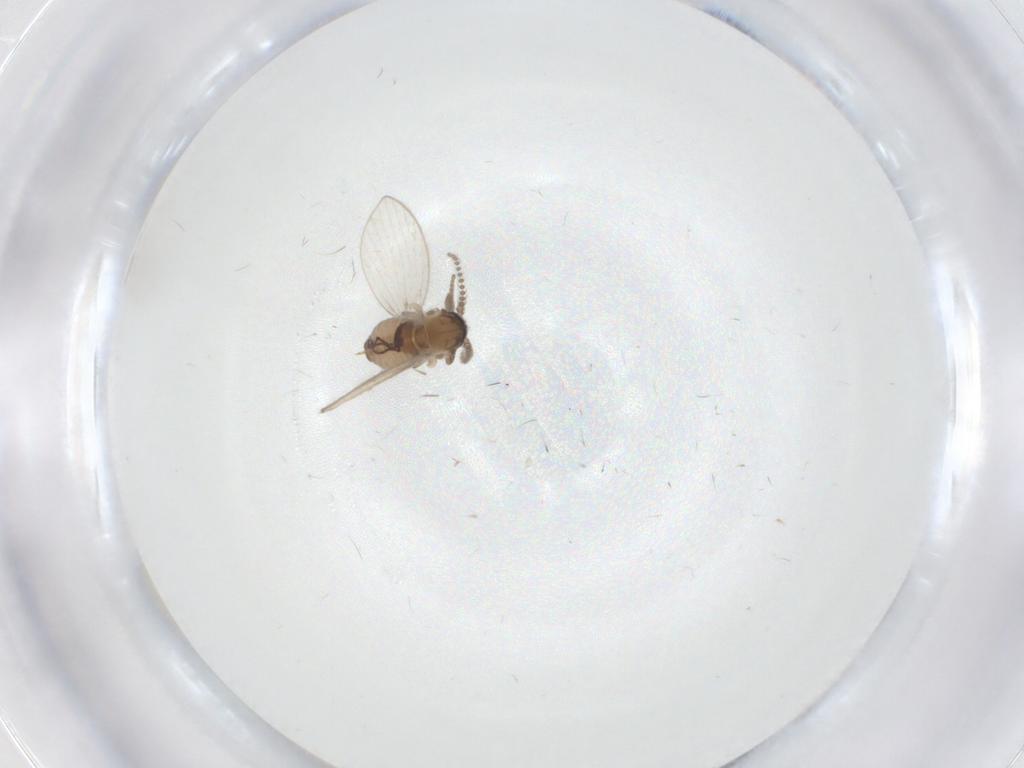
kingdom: Animalia
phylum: Arthropoda
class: Insecta
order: Diptera
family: Psychodidae
